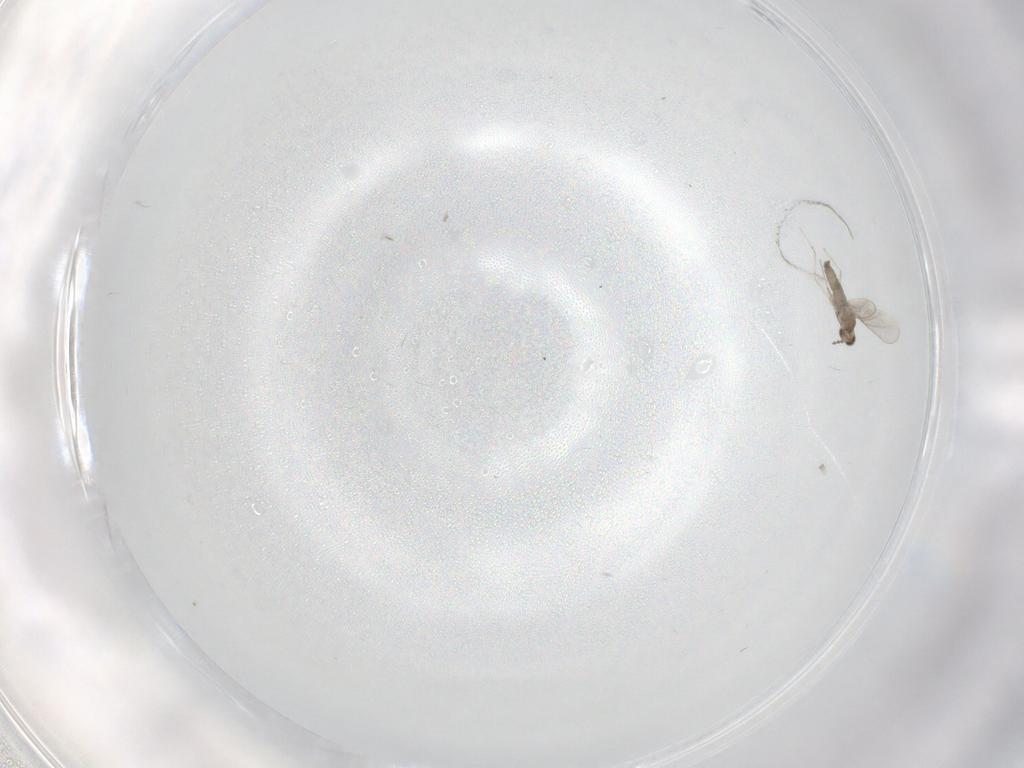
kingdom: Animalia
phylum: Arthropoda
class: Insecta
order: Diptera
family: Cecidomyiidae
